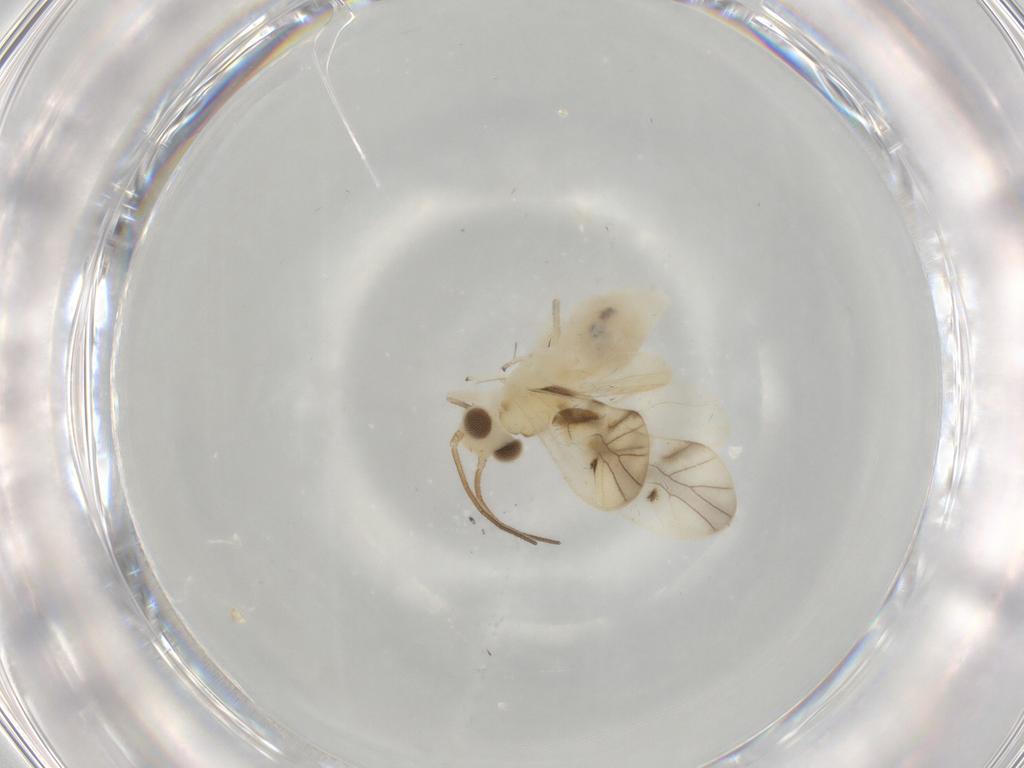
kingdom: Animalia
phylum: Arthropoda
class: Insecta
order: Psocodea
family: Caeciliusidae
